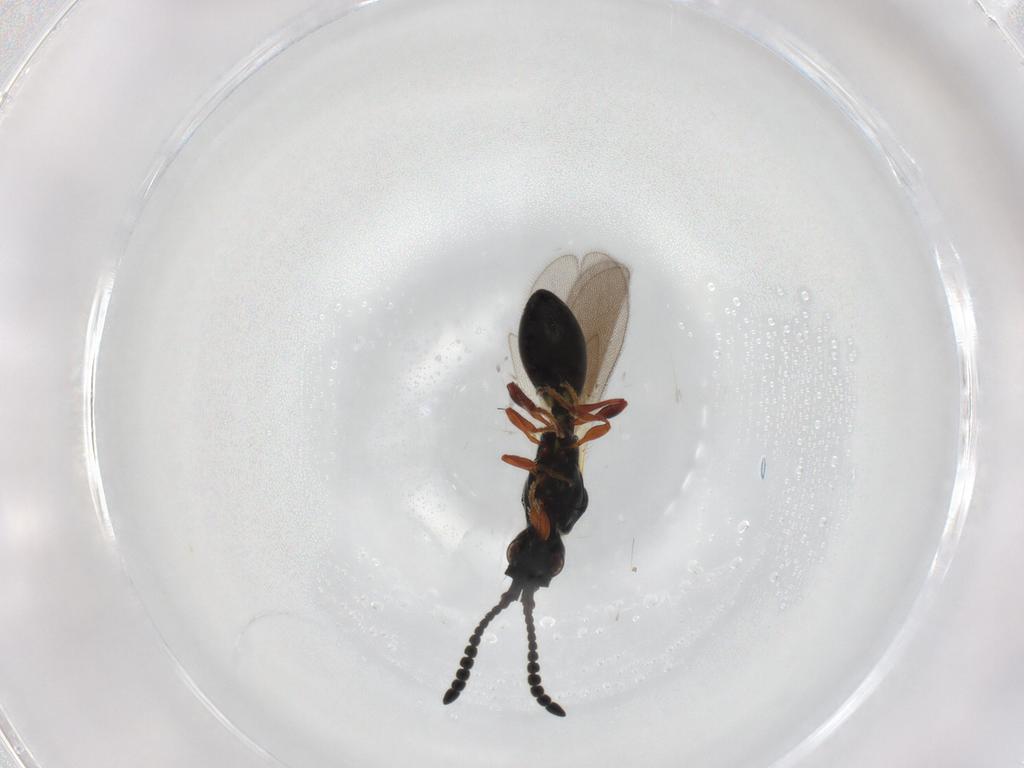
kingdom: Animalia
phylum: Arthropoda
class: Insecta
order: Hymenoptera
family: Diapriidae
